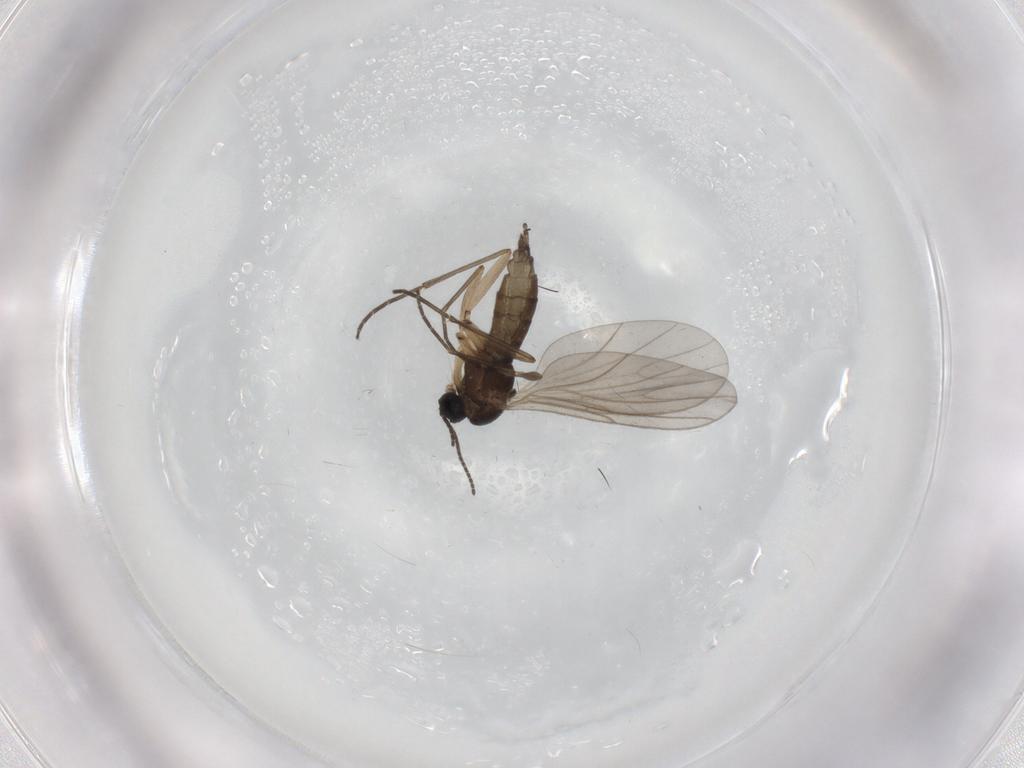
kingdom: Animalia
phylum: Arthropoda
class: Insecta
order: Diptera
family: Sciaridae
